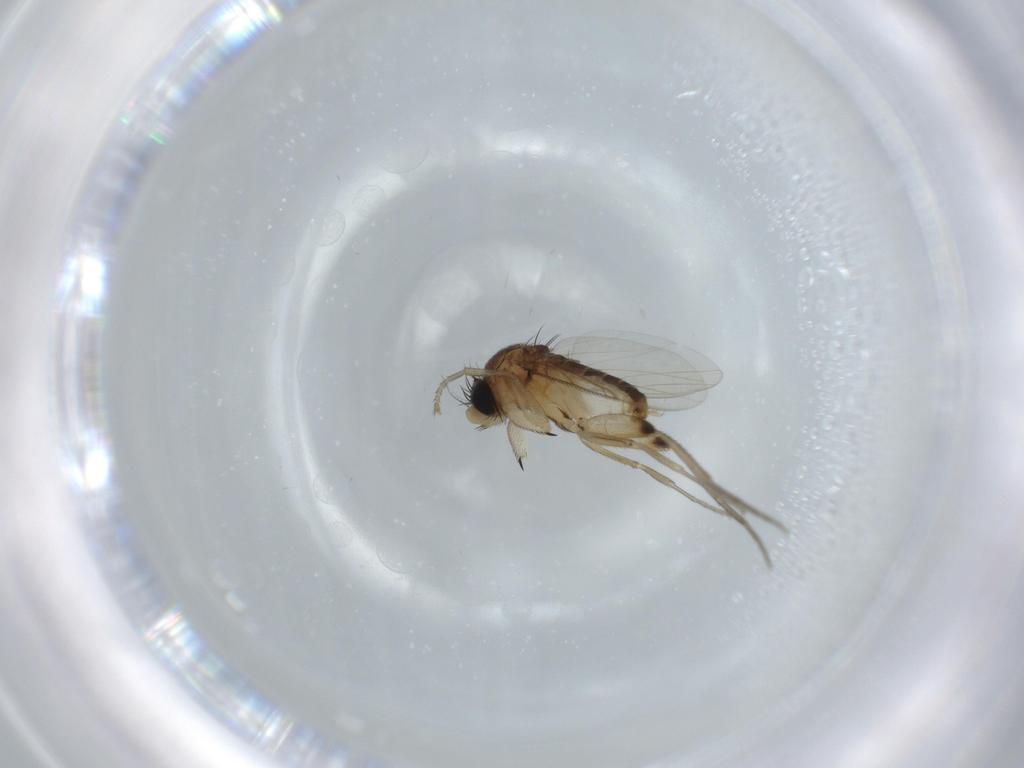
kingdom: Animalia
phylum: Arthropoda
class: Insecta
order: Diptera
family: Phoridae
